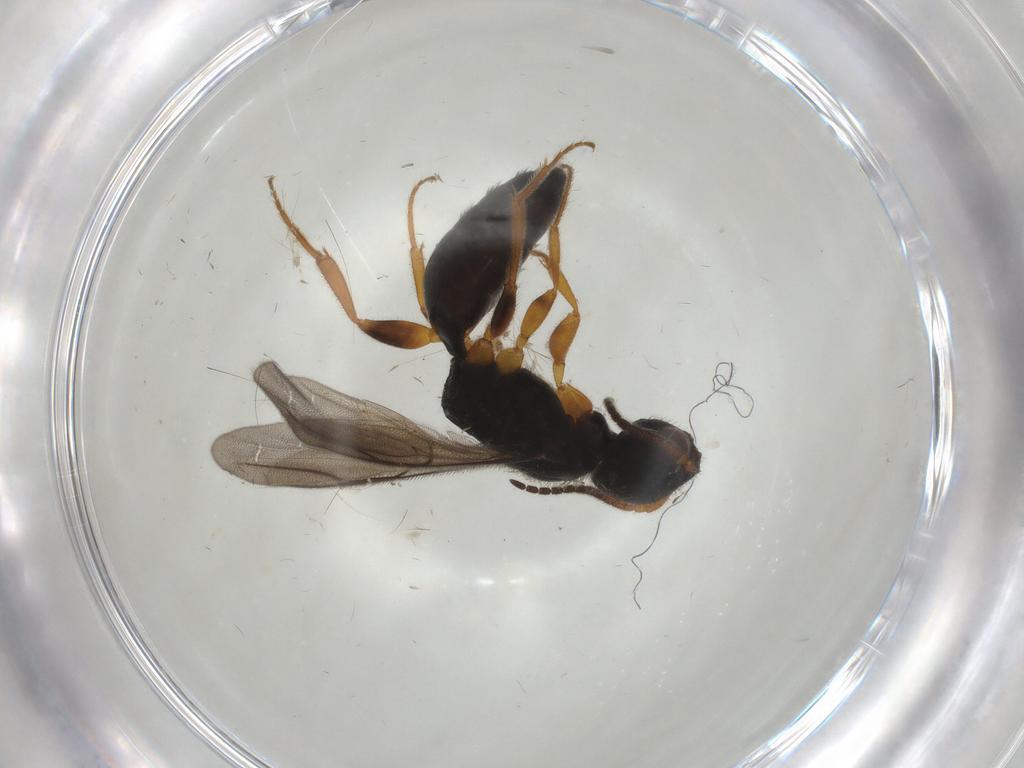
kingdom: Animalia
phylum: Arthropoda
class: Insecta
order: Hymenoptera
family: Bethylidae
